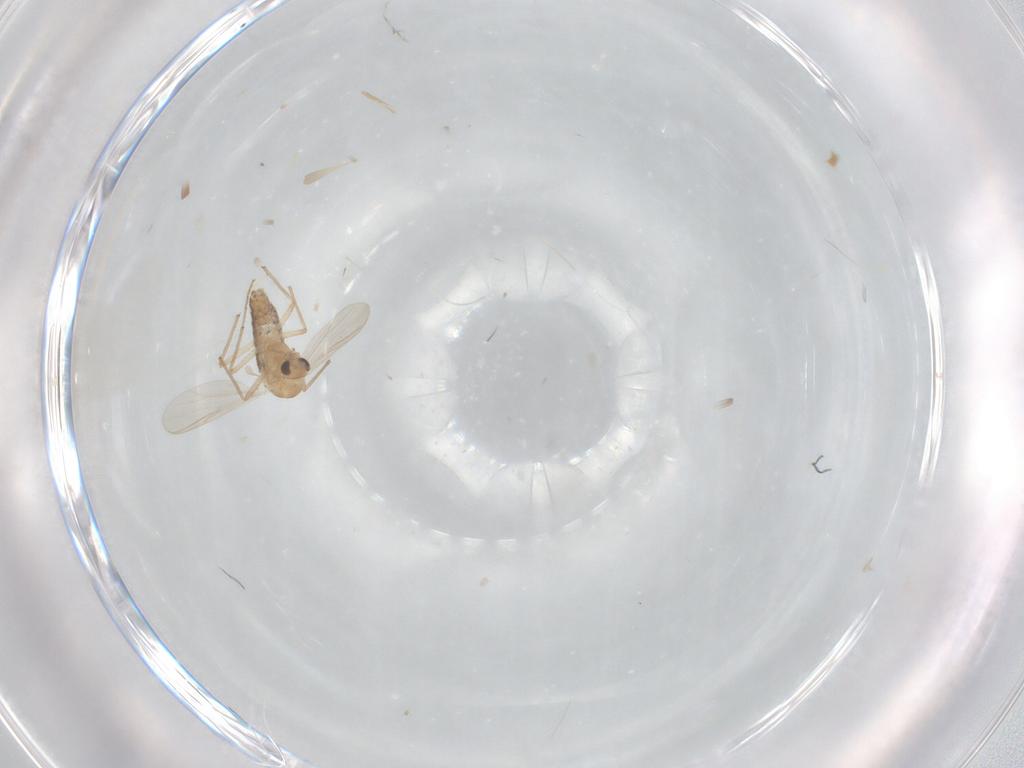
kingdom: Animalia
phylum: Arthropoda
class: Insecta
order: Diptera
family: Chironomidae
